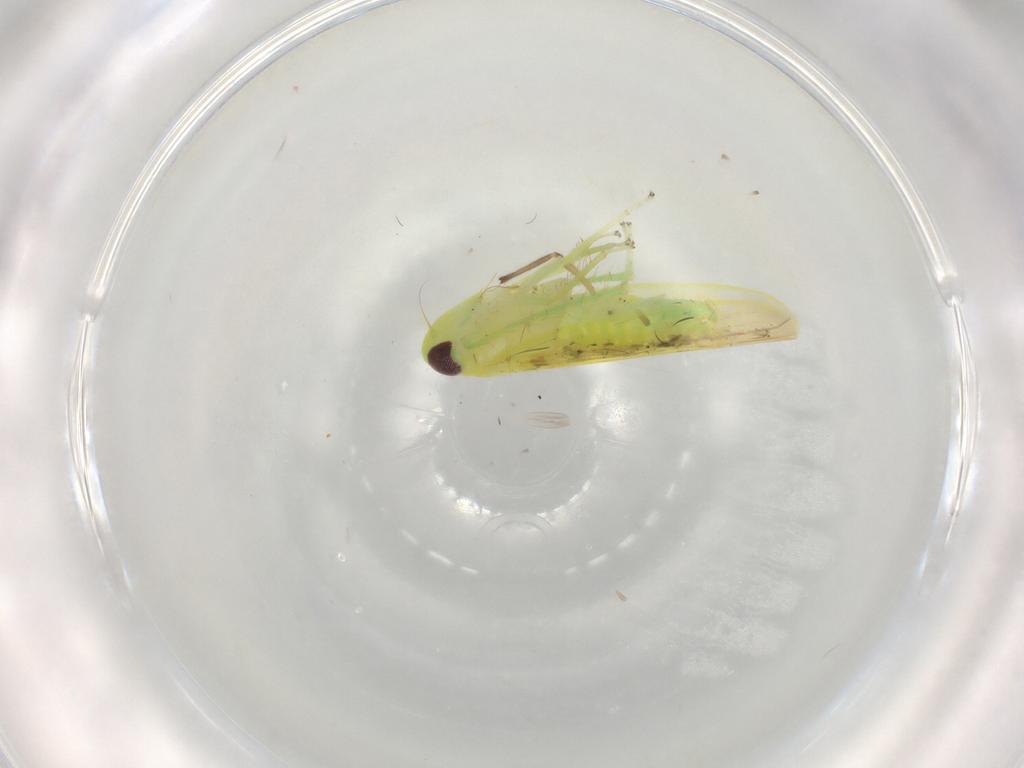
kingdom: Animalia
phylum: Arthropoda
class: Insecta
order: Hemiptera
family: Cicadellidae
